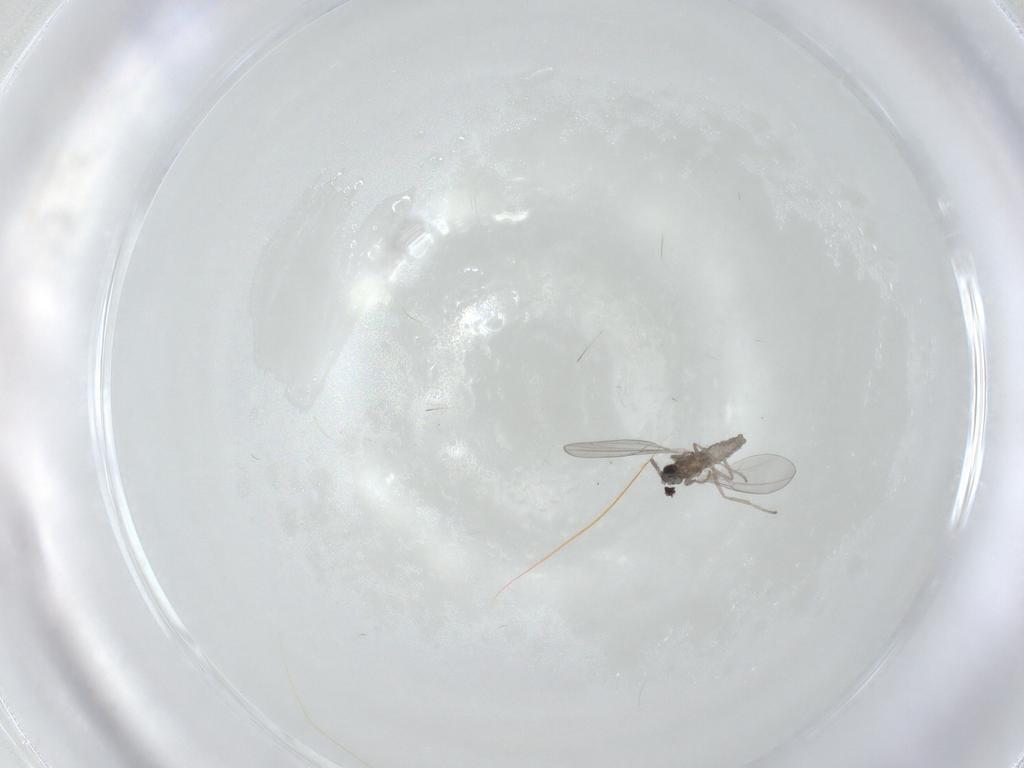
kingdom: Animalia
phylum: Arthropoda
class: Insecta
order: Diptera
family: Cecidomyiidae
